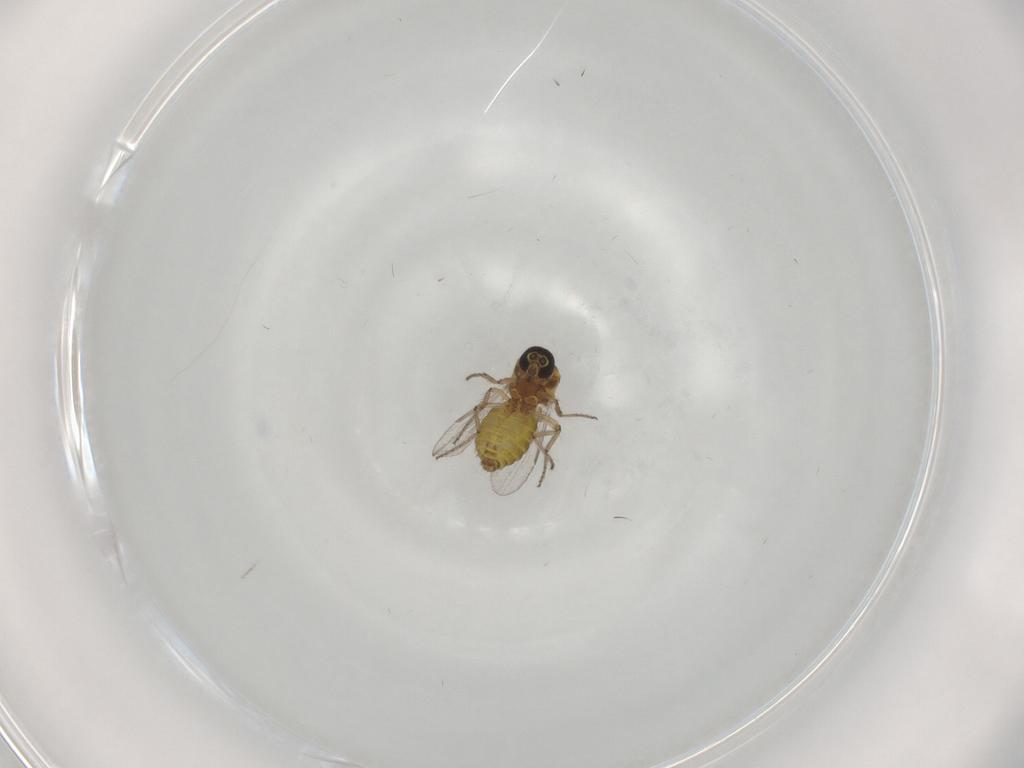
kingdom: Animalia
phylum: Arthropoda
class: Insecta
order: Diptera
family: Ceratopogonidae
